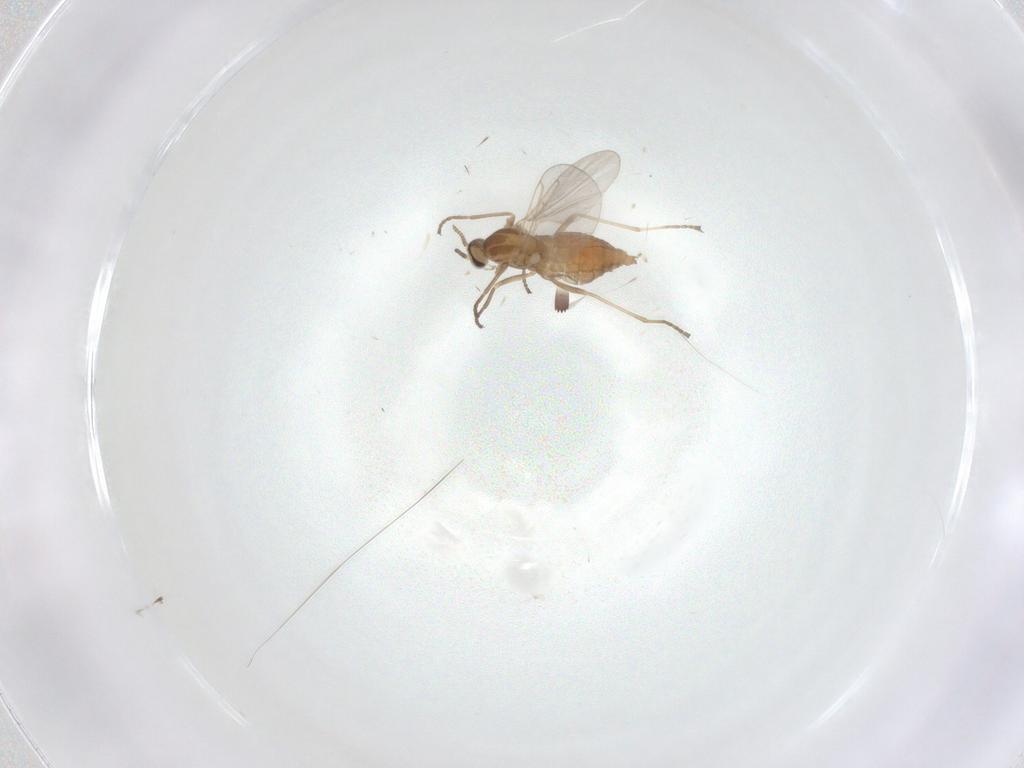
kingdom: Animalia
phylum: Arthropoda
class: Insecta
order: Diptera
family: Cecidomyiidae
